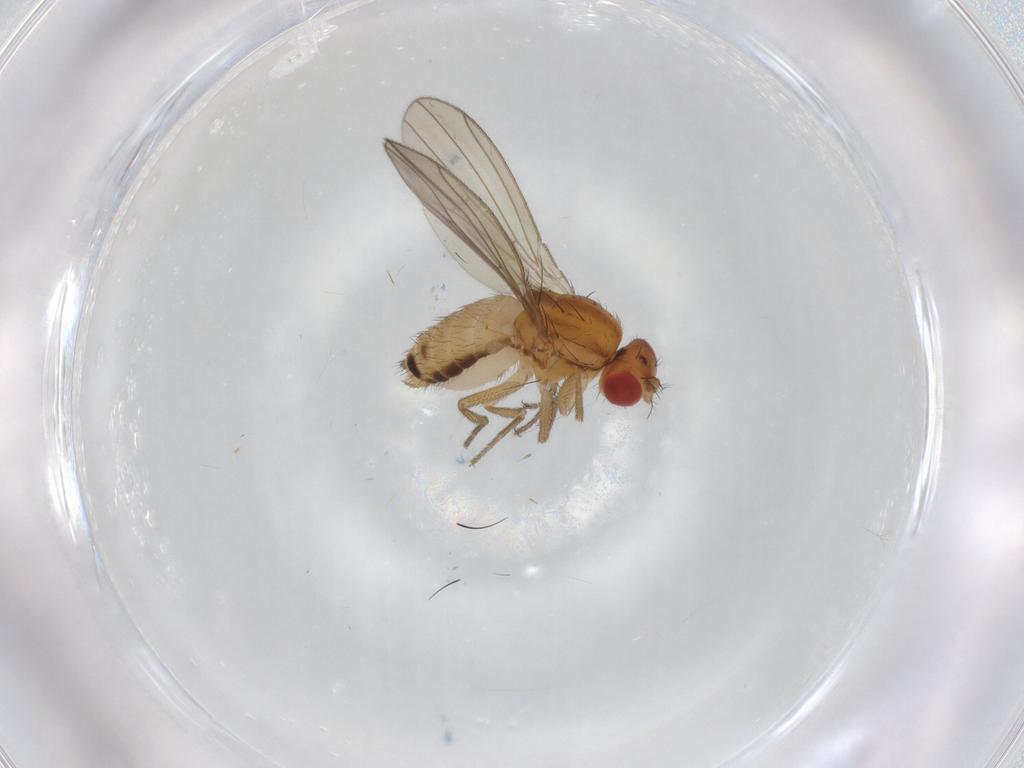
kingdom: Animalia
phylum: Arthropoda
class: Insecta
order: Diptera
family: Drosophilidae
